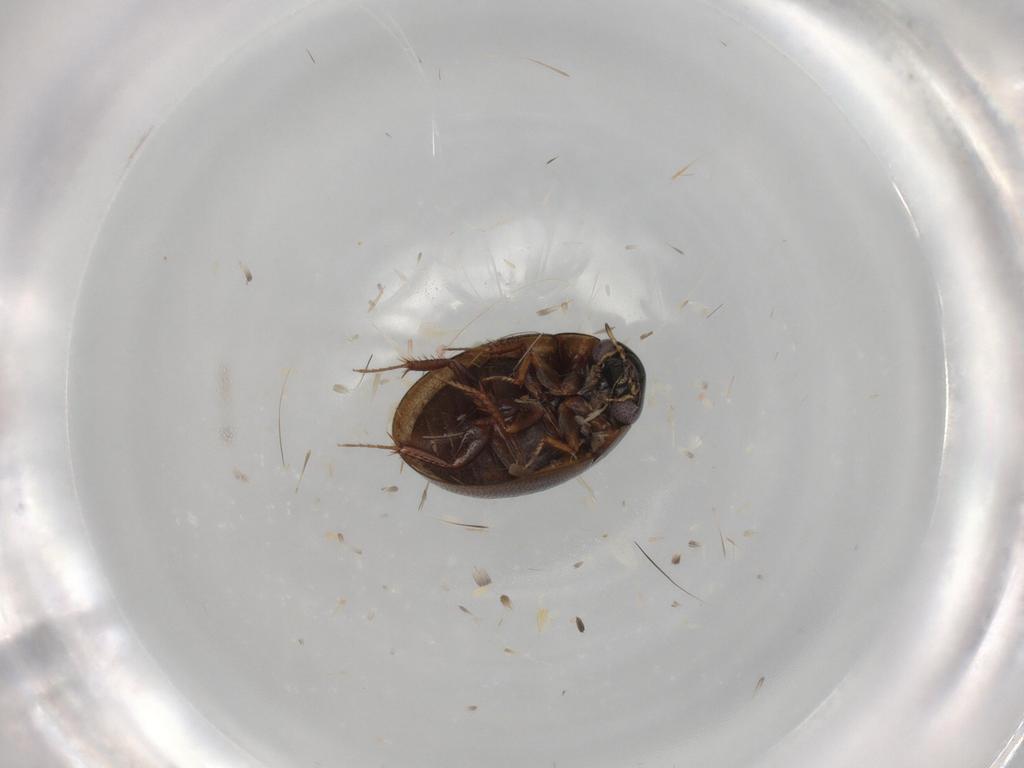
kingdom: Animalia
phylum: Arthropoda
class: Insecta
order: Coleoptera
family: Hydrophilidae
